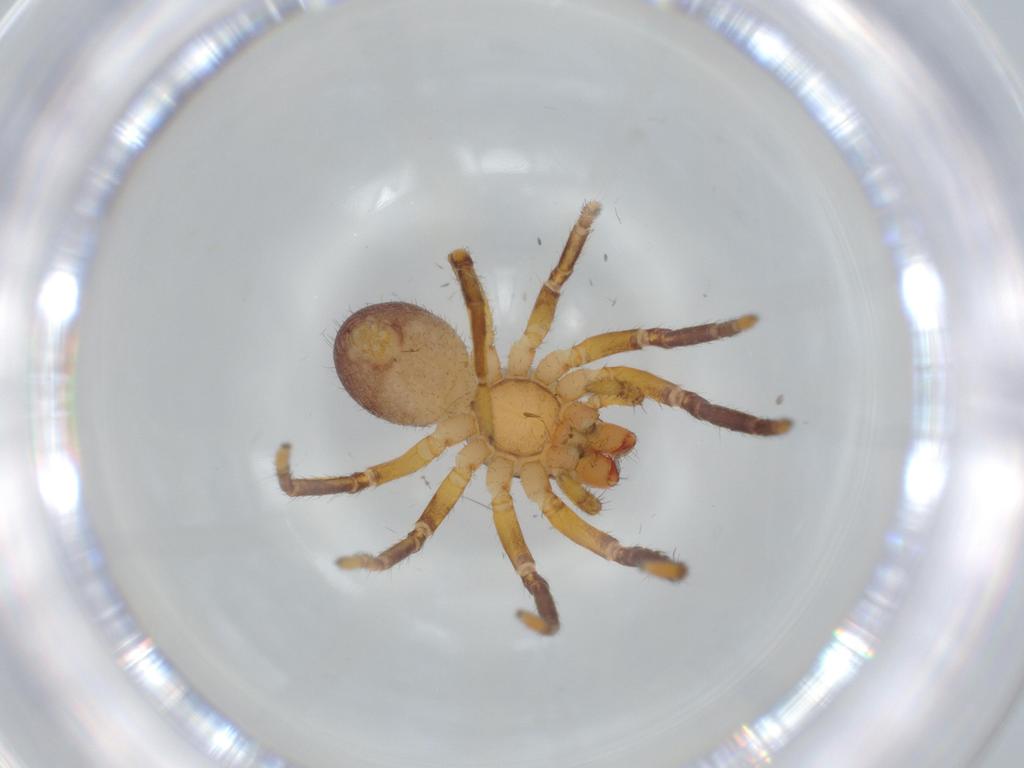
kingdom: Animalia
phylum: Arthropoda
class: Arachnida
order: Araneae
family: Corinnidae
